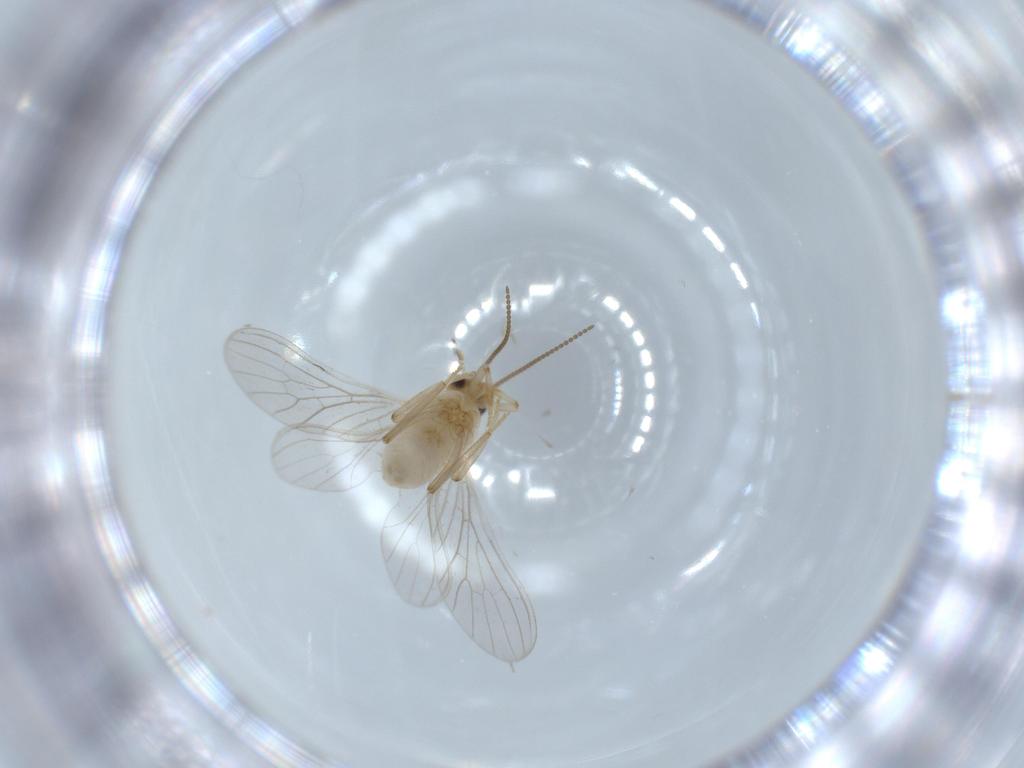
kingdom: Animalia
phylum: Arthropoda
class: Insecta
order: Neuroptera
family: Coniopterygidae
